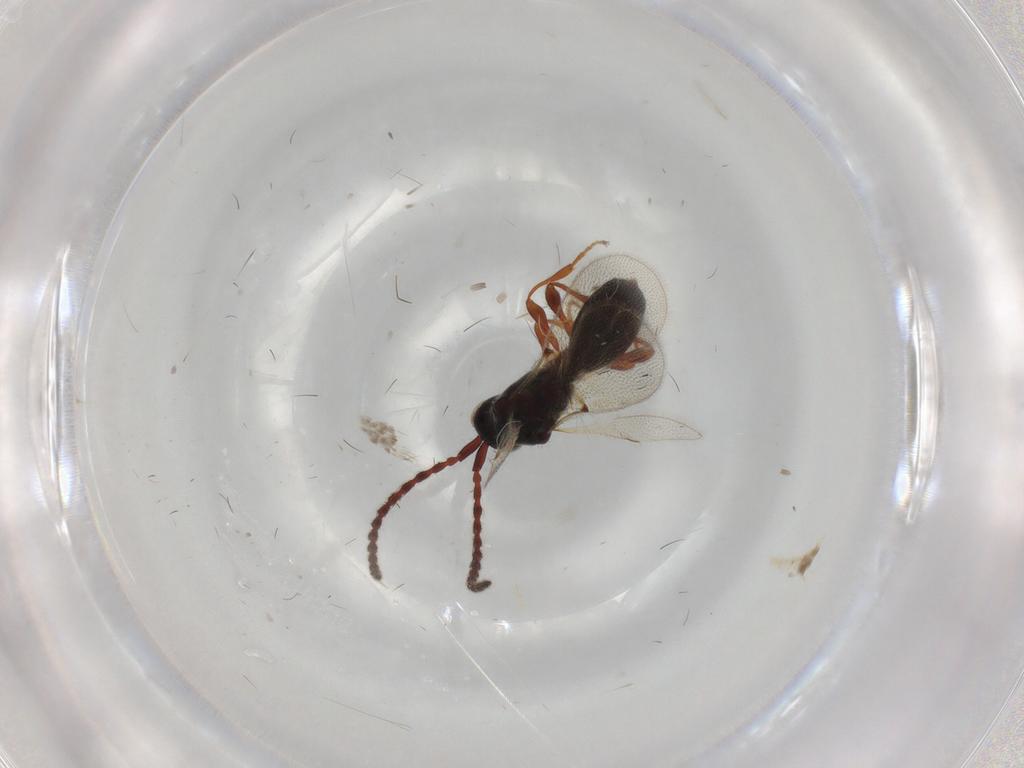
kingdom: Animalia
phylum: Arthropoda
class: Insecta
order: Hymenoptera
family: Diapriidae
